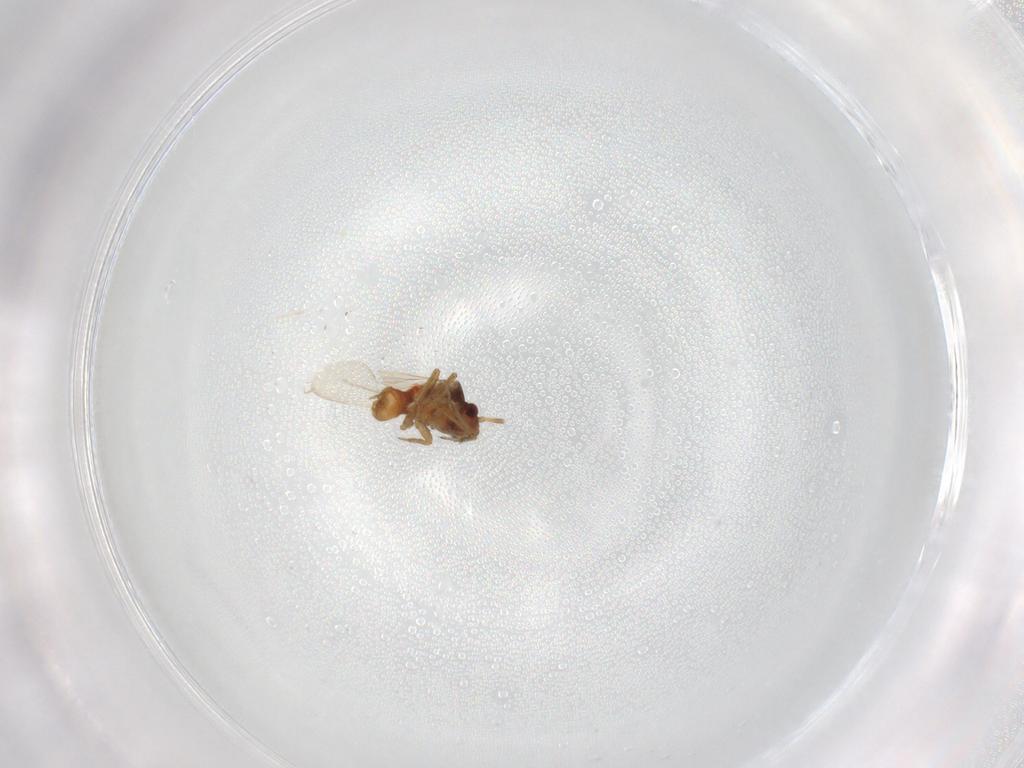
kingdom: Animalia
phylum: Arthropoda
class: Insecta
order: Hemiptera
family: Ceratocombidae
